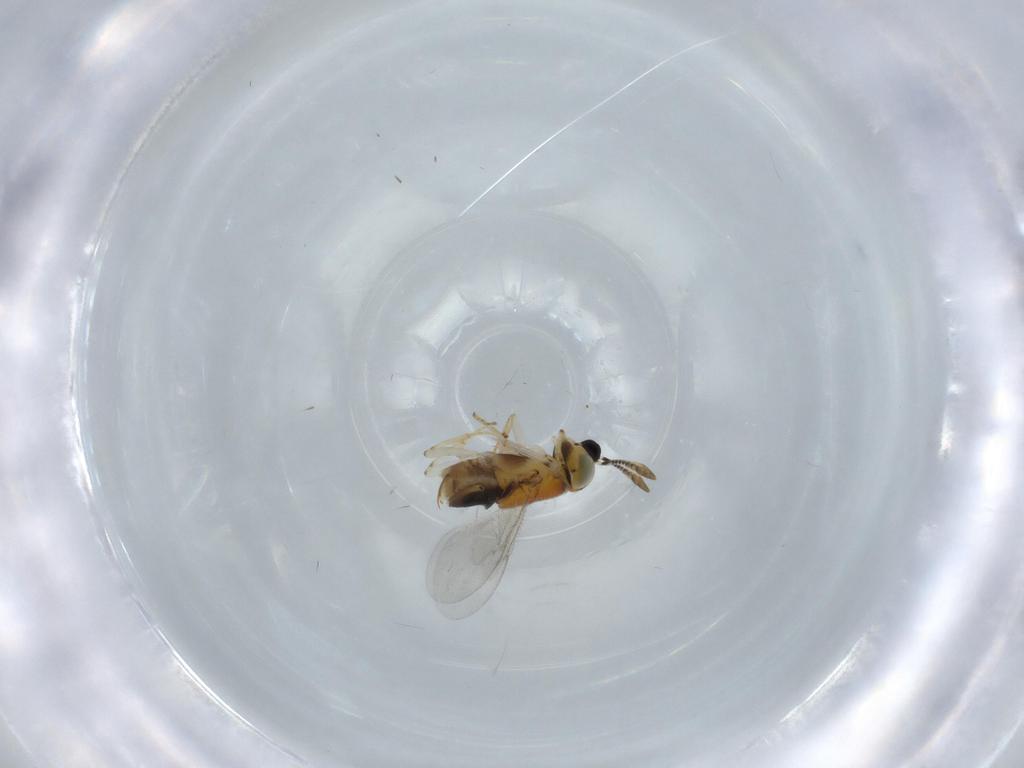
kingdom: Animalia
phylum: Arthropoda
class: Insecta
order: Diptera
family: Phoridae
